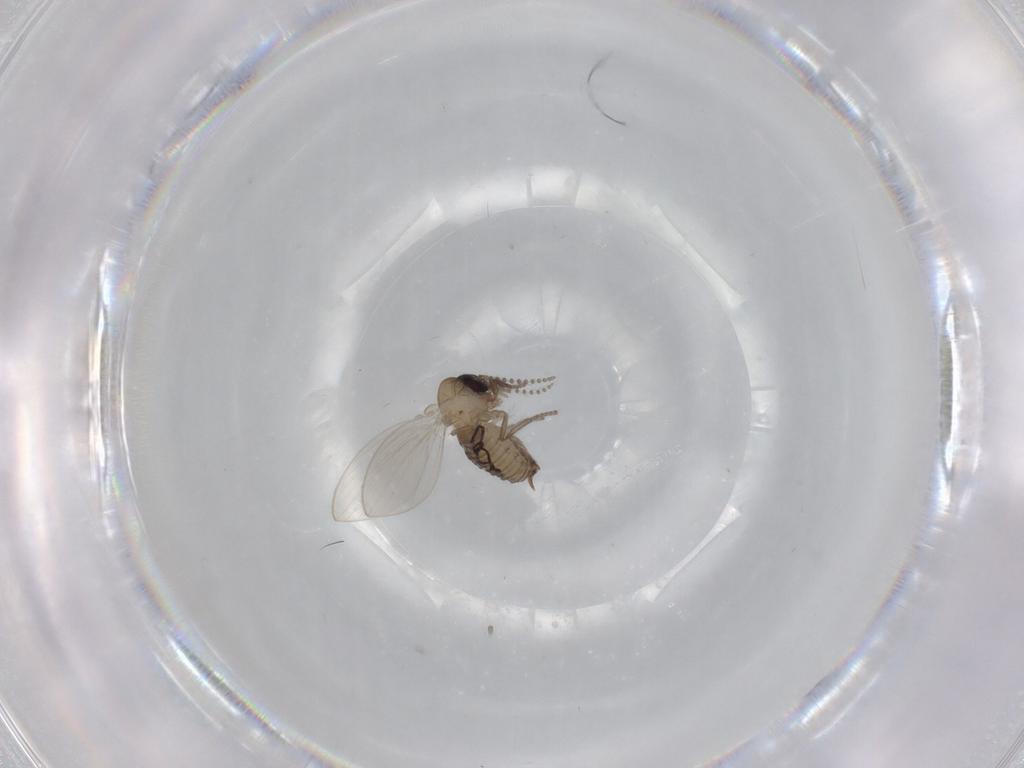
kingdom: Animalia
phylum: Arthropoda
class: Insecta
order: Diptera
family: Psychodidae
